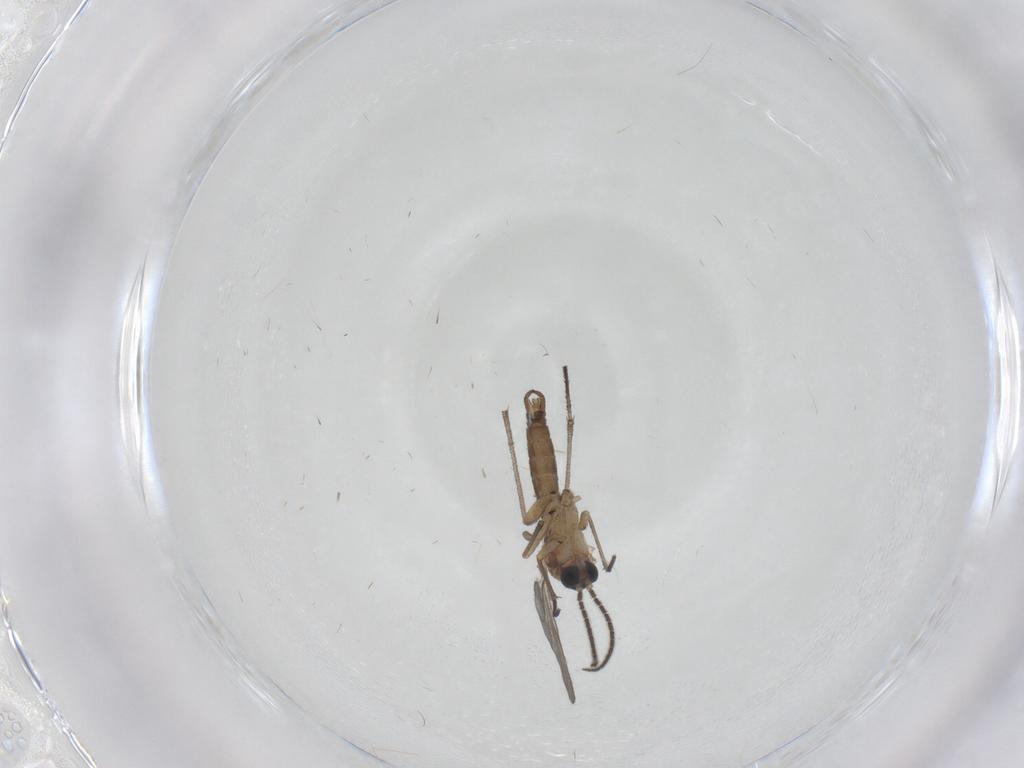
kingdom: Animalia
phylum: Arthropoda
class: Insecta
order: Diptera
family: Sciaridae
